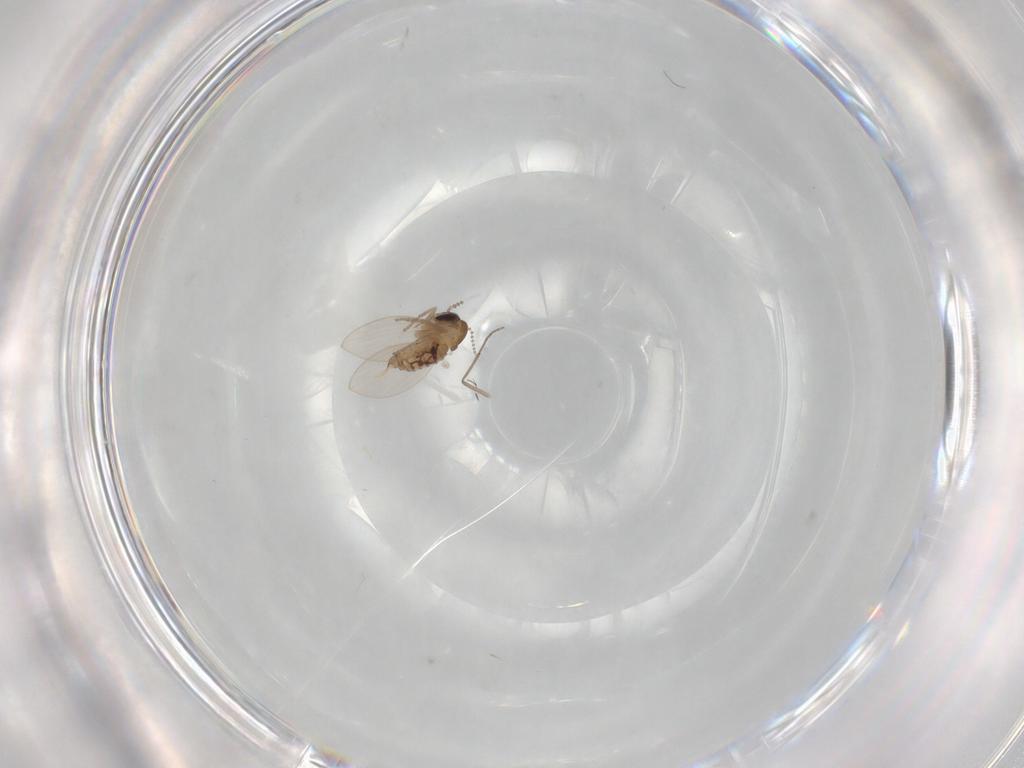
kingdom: Animalia
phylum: Arthropoda
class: Insecta
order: Diptera
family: Psychodidae
